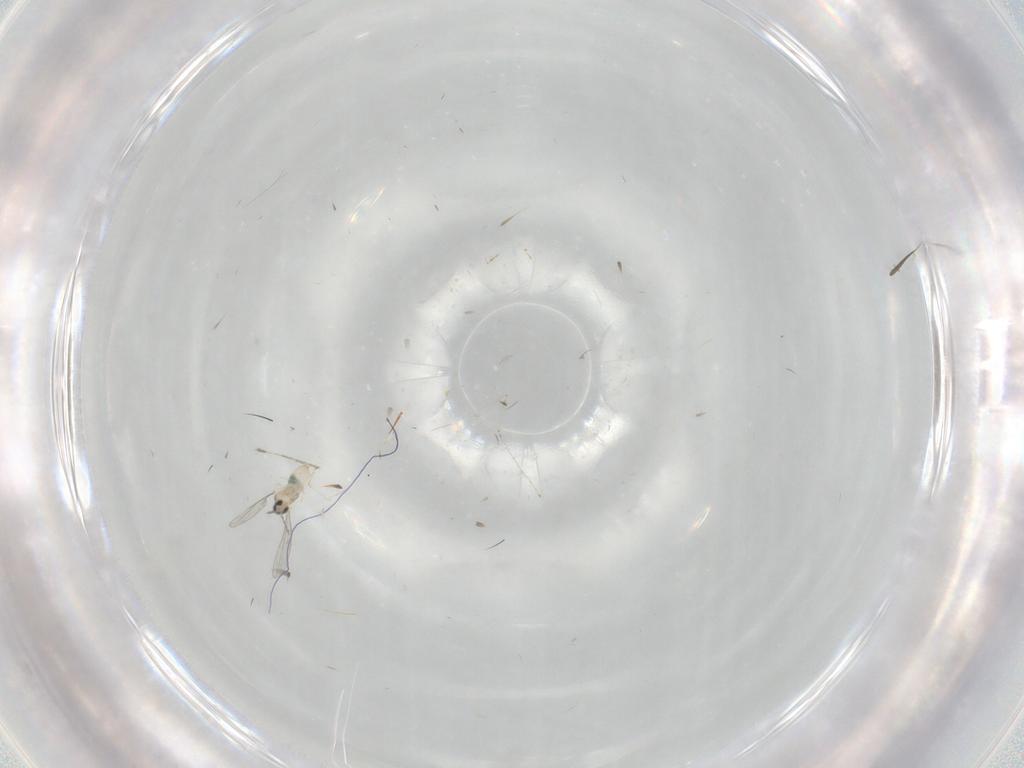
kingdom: Animalia
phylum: Arthropoda
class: Insecta
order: Diptera
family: Cecidomyiidae
